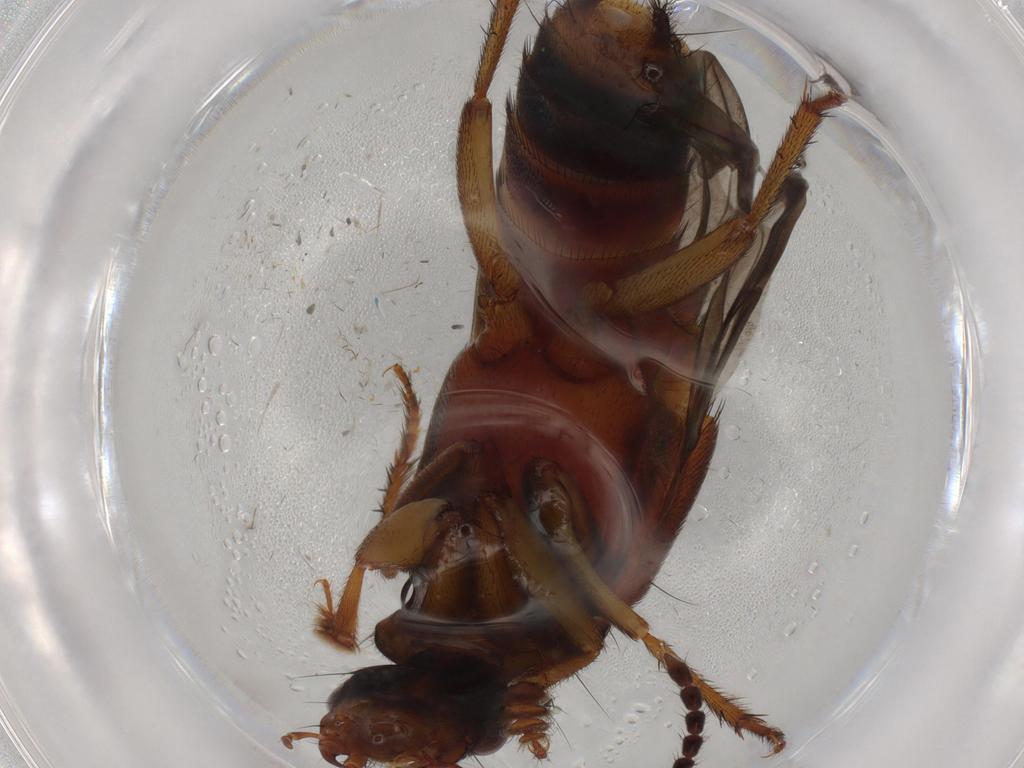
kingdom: Animalia
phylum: Arthropoda
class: Insecta
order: Coleoptera
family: Staphylinidae
